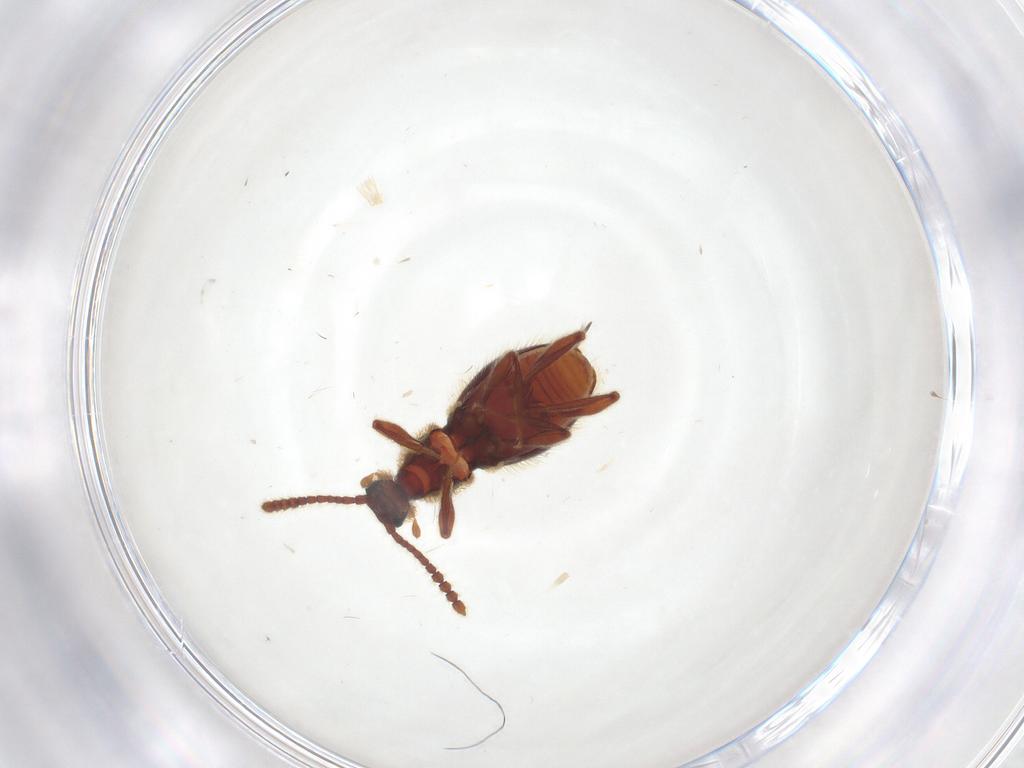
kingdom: Animalia
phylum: Arthropoda
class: Insecta
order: Coleoptera
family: Staphylinidae
